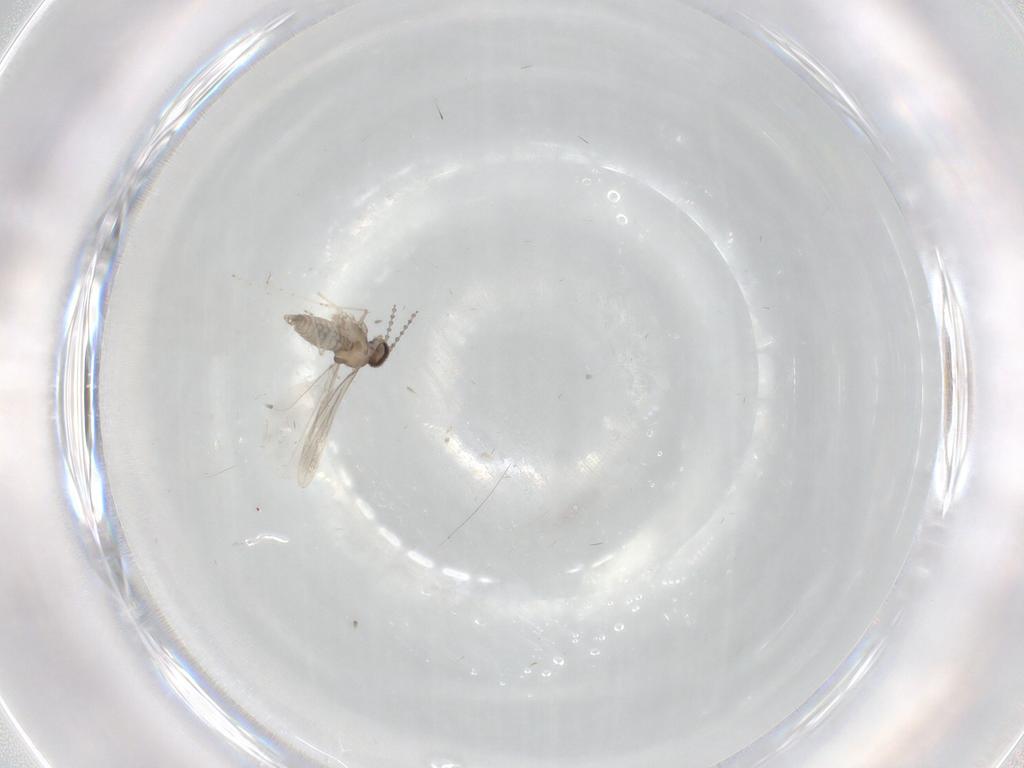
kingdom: Animalia
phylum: Arthropoda
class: Insecta
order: Diptera
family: Cecidomyiidae
